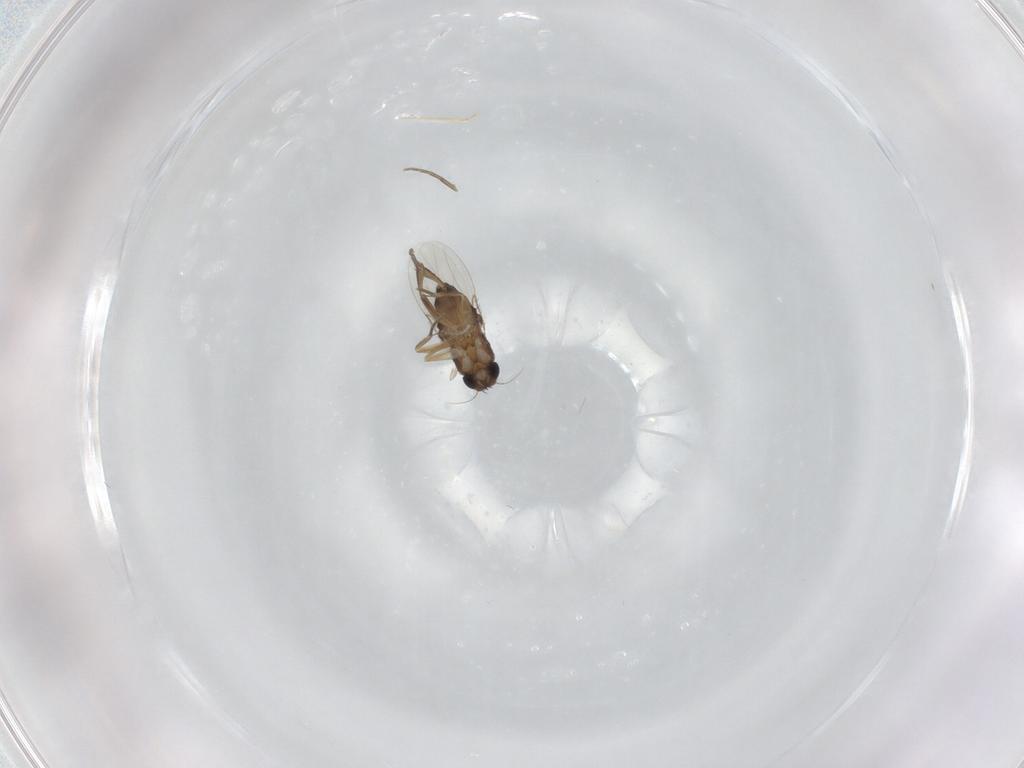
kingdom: Animalia
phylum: Arthropoda
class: Insecta
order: Diptera
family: Phoridae
